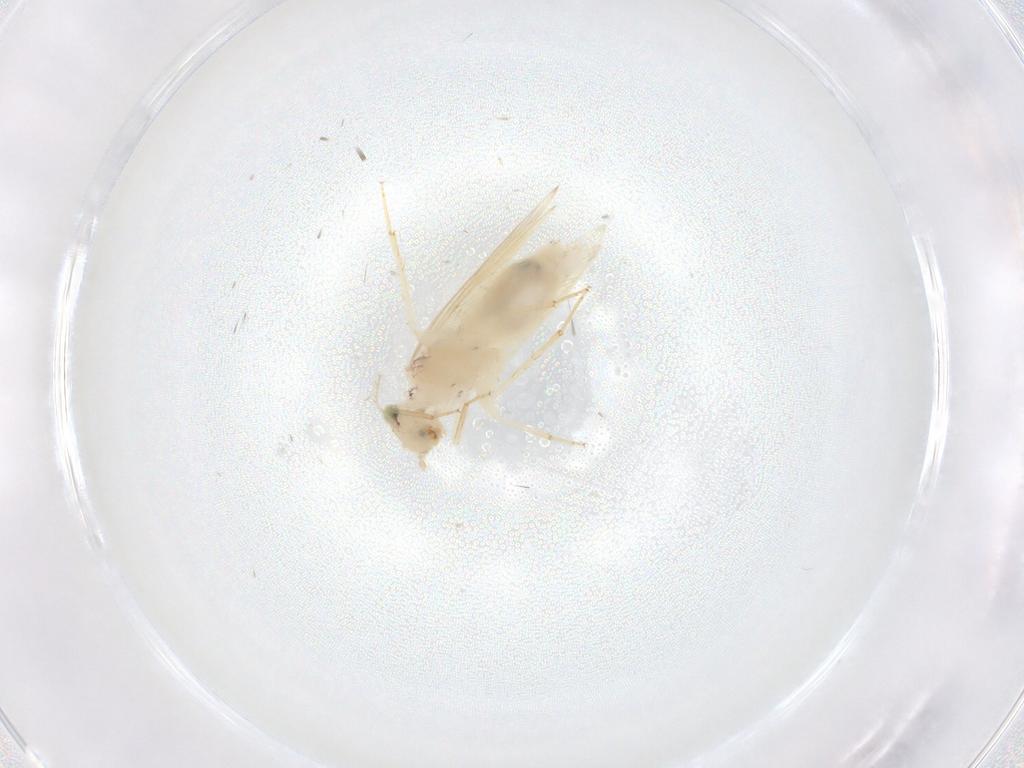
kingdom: Animalia
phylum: Arthropoda
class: Insecta
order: Psocodea
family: Lepidopsocidae
